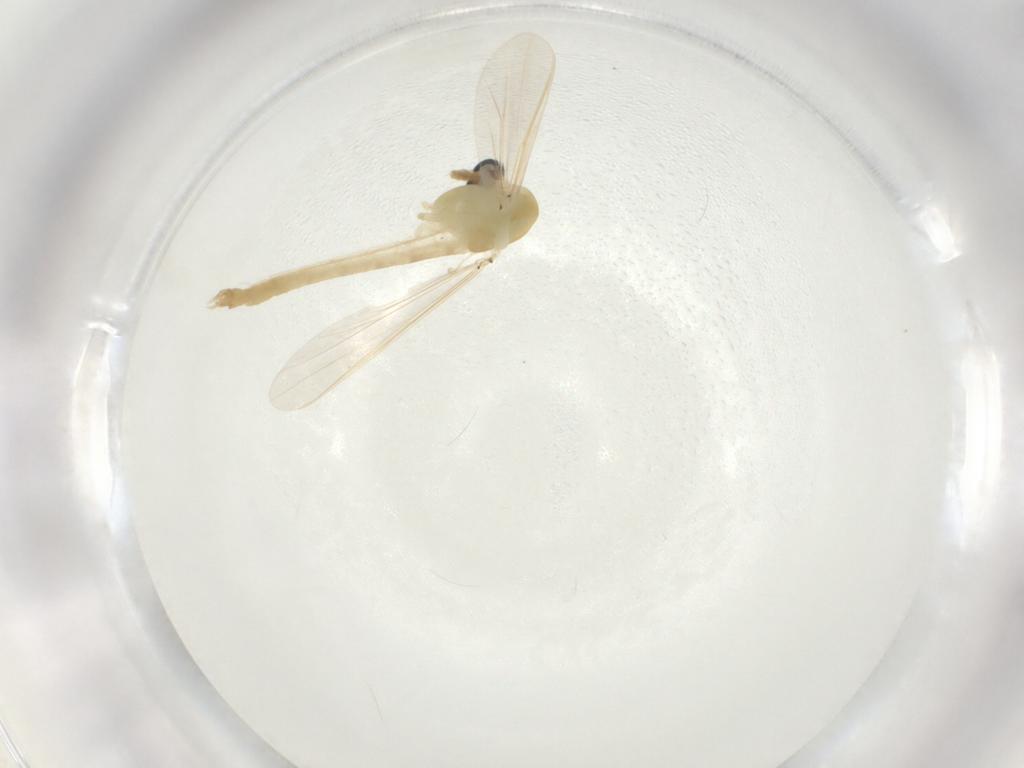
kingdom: Animalia
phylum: Arthropoda
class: Insecta
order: Diptera
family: Chironomidae
